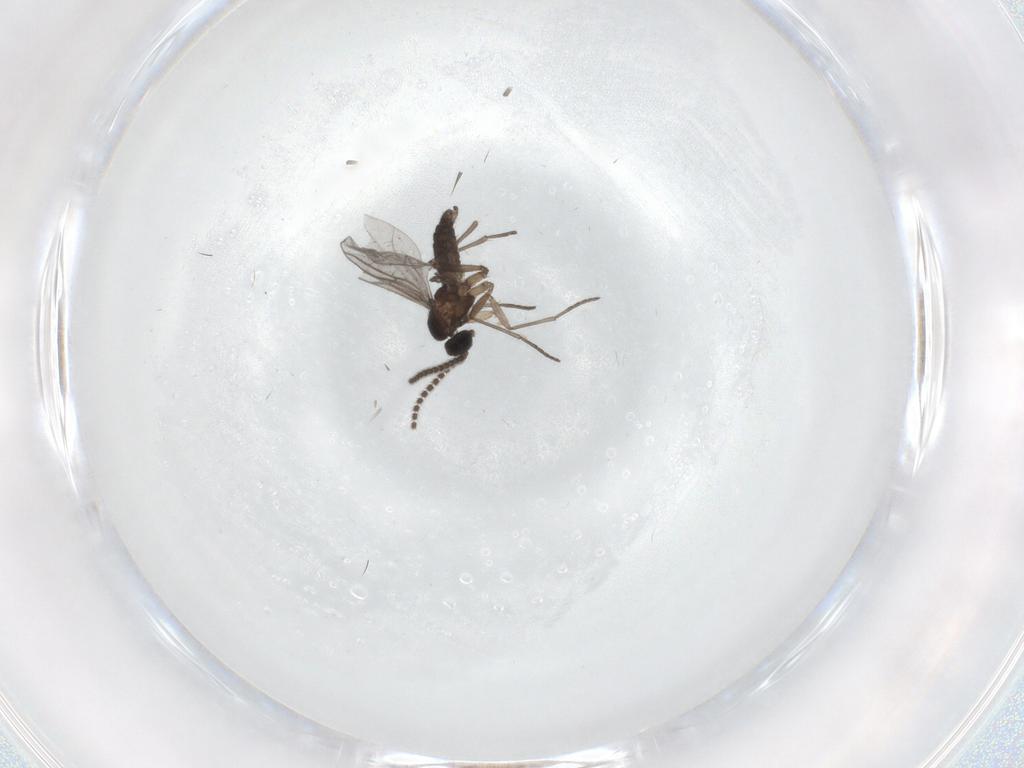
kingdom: Animalia
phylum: Arthropoda
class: Insecta
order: Diptera
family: Cecidomyiidae
